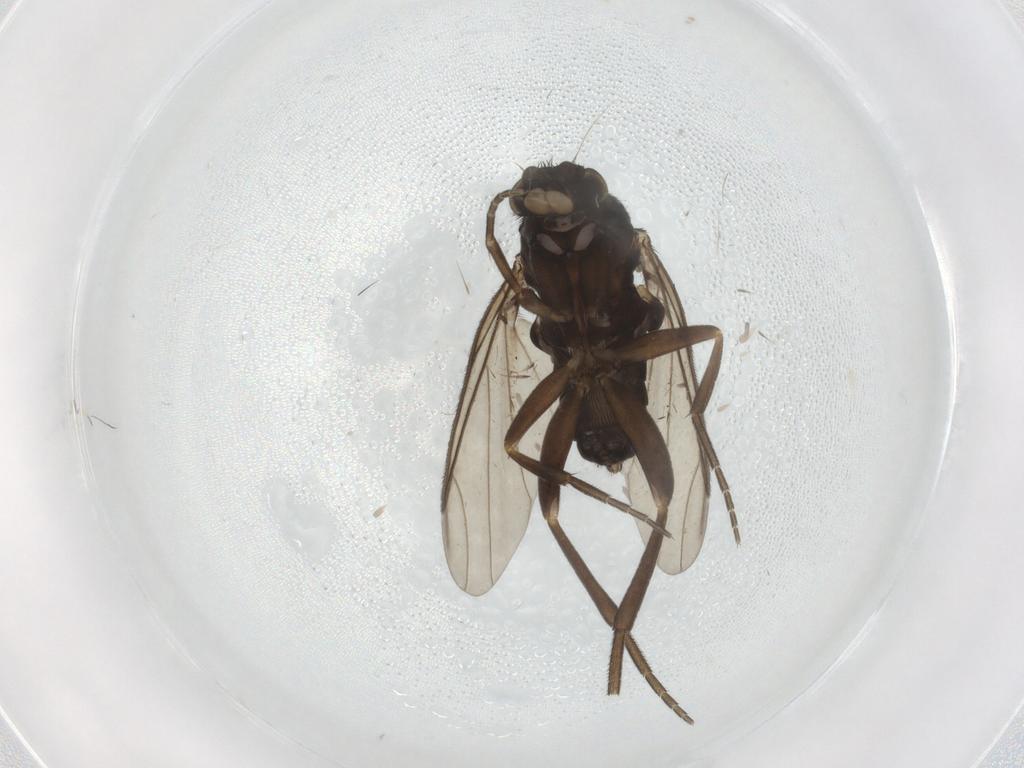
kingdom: Animalia
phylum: Arthropoda
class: Insecta
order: Diptera
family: Phoridae
